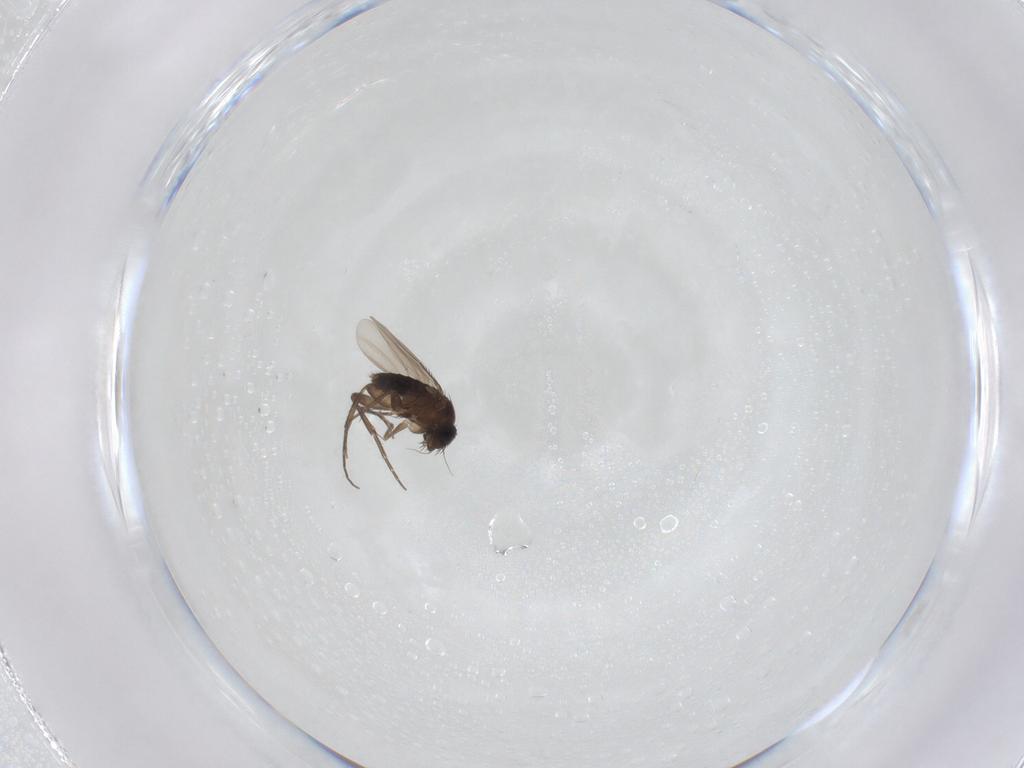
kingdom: Animalia
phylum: Arthropoda
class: Insecta
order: Diptera
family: Phoridae
